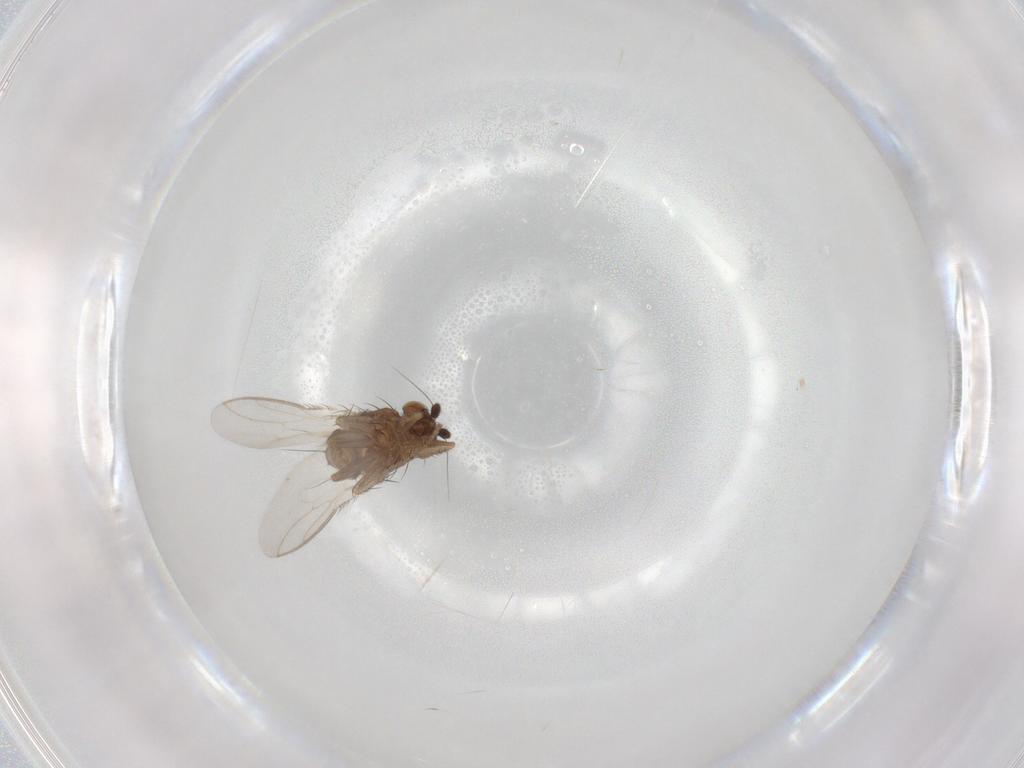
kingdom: Animalia
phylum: Arthropoda
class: Insecta
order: Diptera
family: Sphaeroceridae
